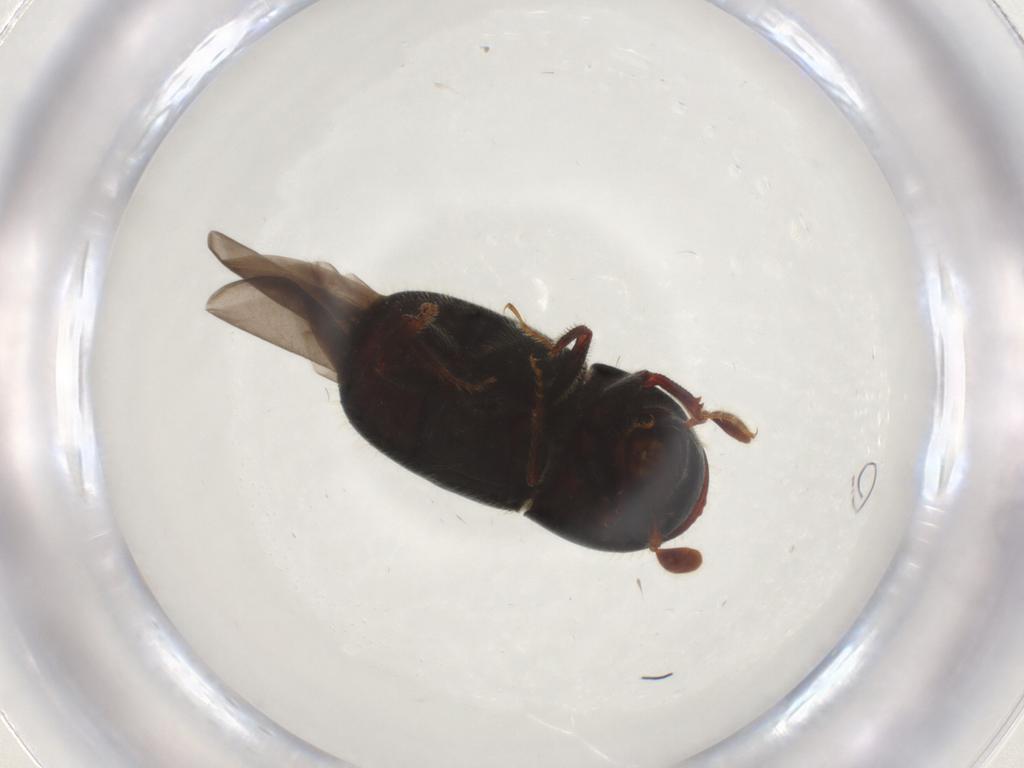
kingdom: Animalia
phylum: Arthropoda
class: Insecta
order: Coleoptera
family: Curculionidae
